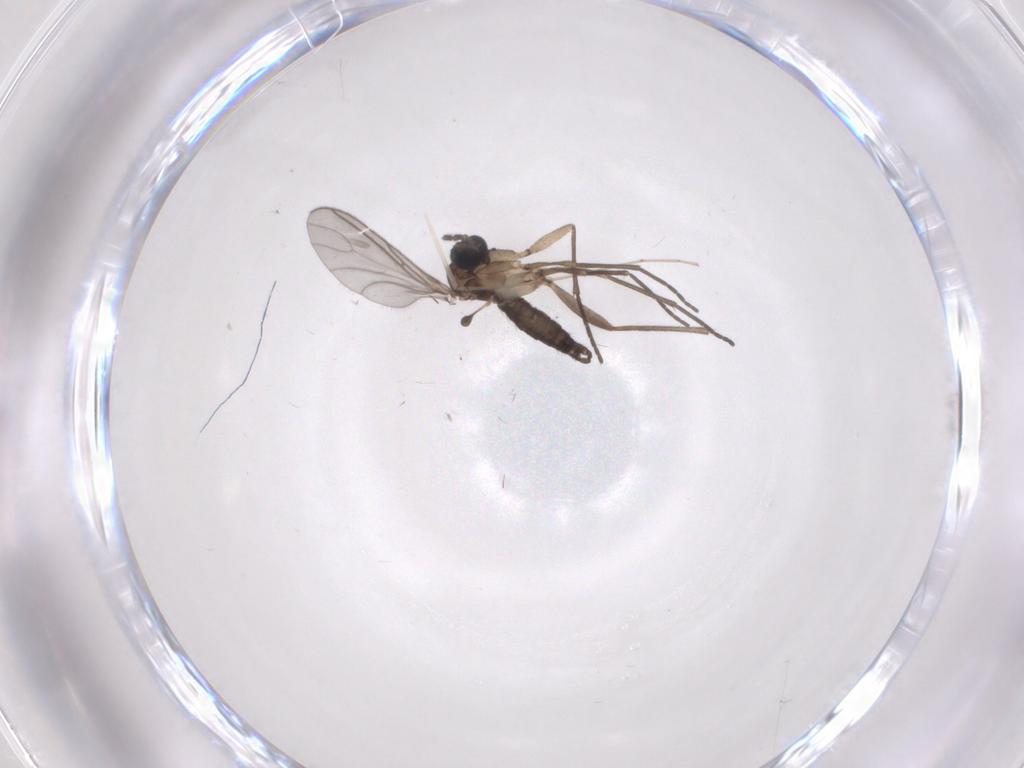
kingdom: Animalia
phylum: Arthropoda
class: Insecta
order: Diptera
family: Sciaridae
